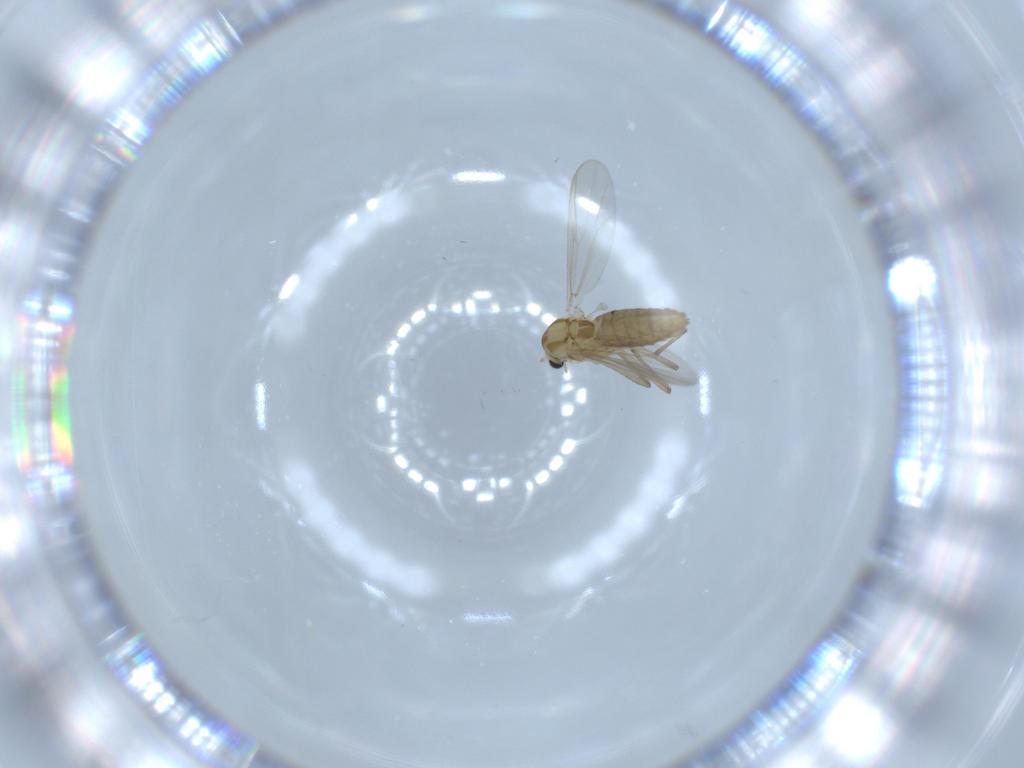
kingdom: Animalia
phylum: Arthropoda
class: Insecta
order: Diptera
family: Chironomidae
